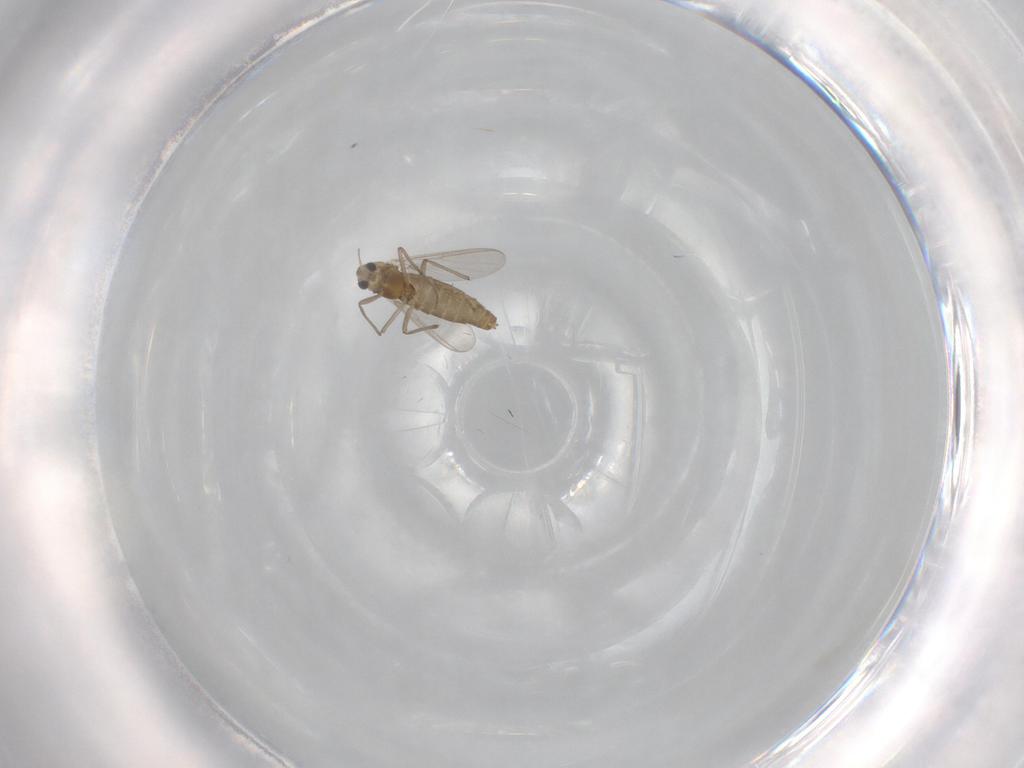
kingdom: Animalia
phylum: Arthropoda
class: Insecta
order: Diptera
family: Chironomidae
